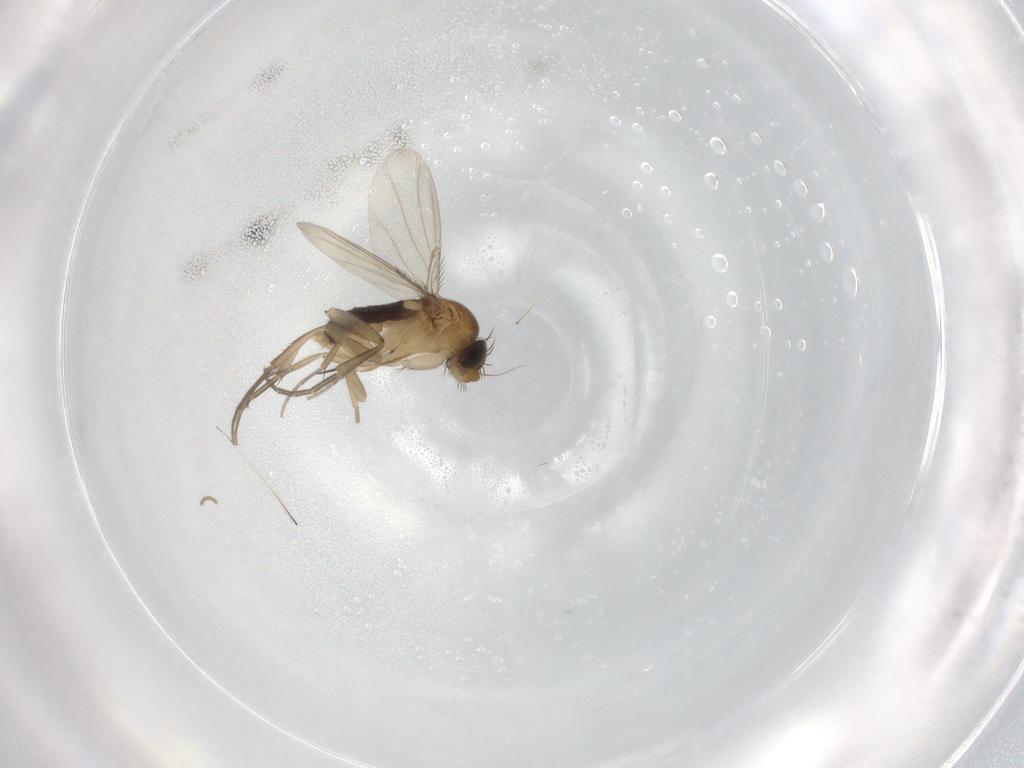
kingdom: Animalia
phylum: Arthropoda
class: Insecta
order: Diptera
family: Phoridae
